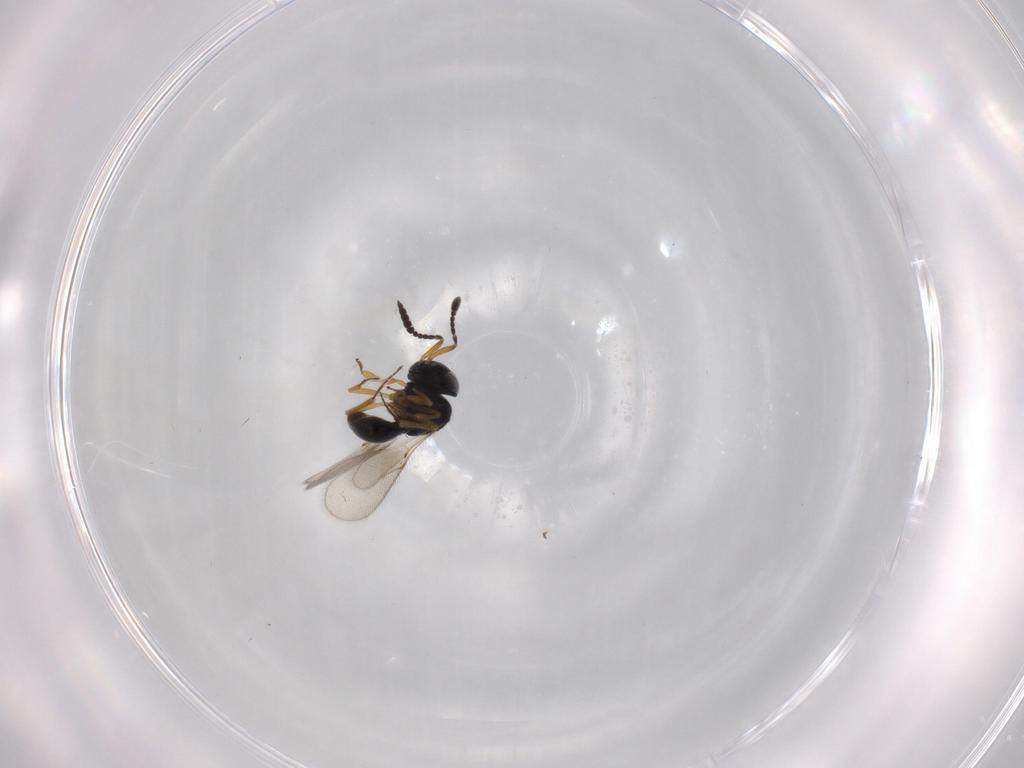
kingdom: Animalia
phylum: Arthropoda
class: Insecta
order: Hymenoptera
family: Scelionidae
